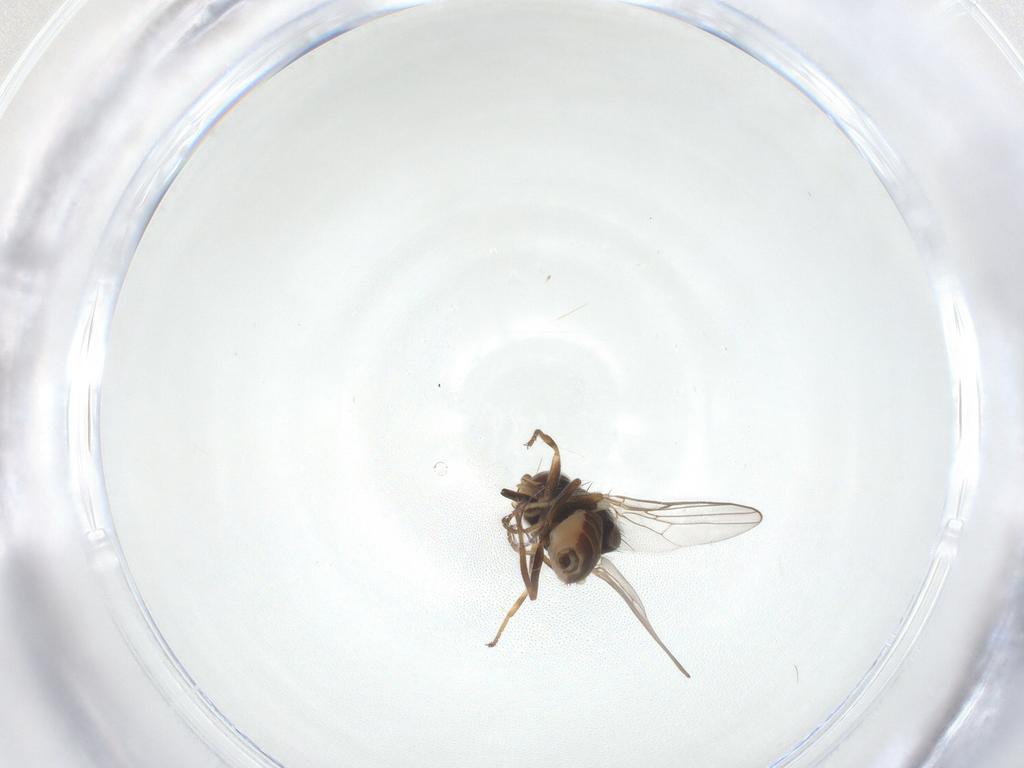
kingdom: Animalia
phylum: Arthropoda
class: Insecta
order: Diptera
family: Chloropidae
